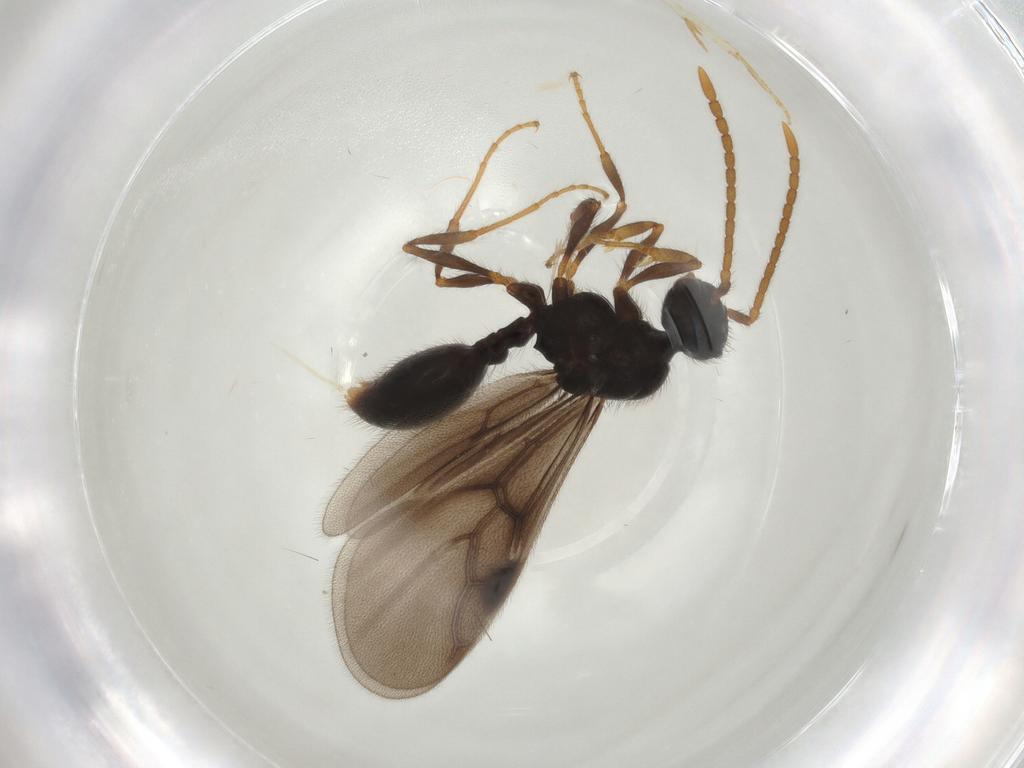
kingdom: Animalia
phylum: Arthropoda
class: Insecta
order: Hymenoptera
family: Formicidae
